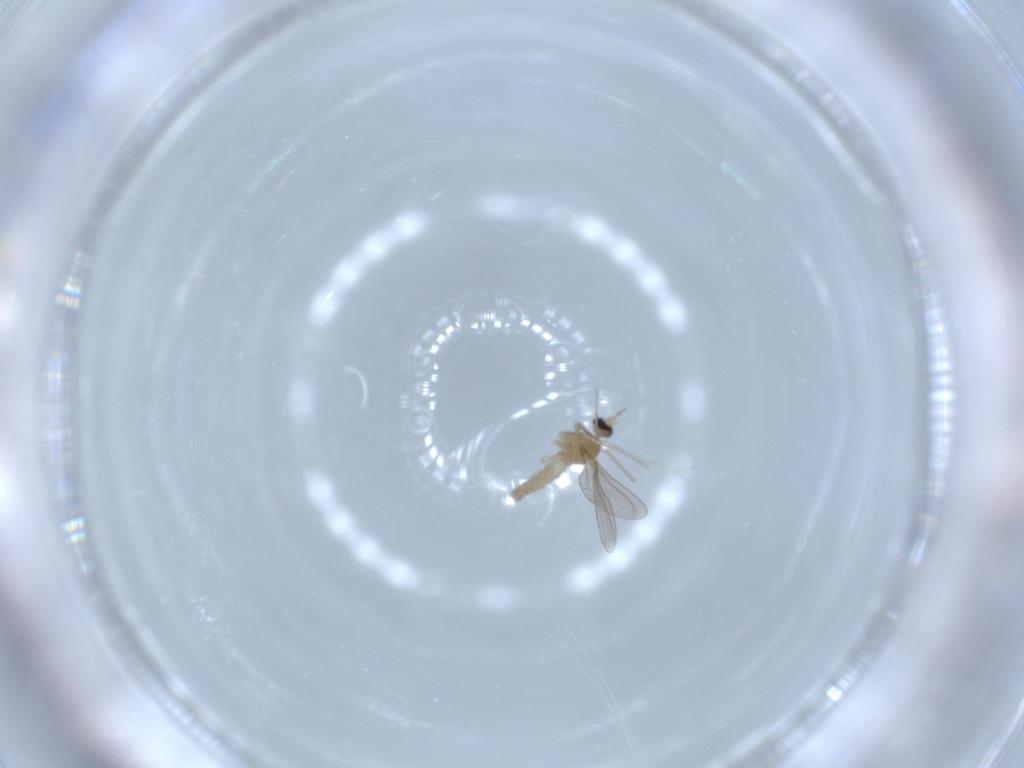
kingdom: Animalia
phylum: Arthropoda
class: Insecta
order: Diptera
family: Cecidomyiidae
